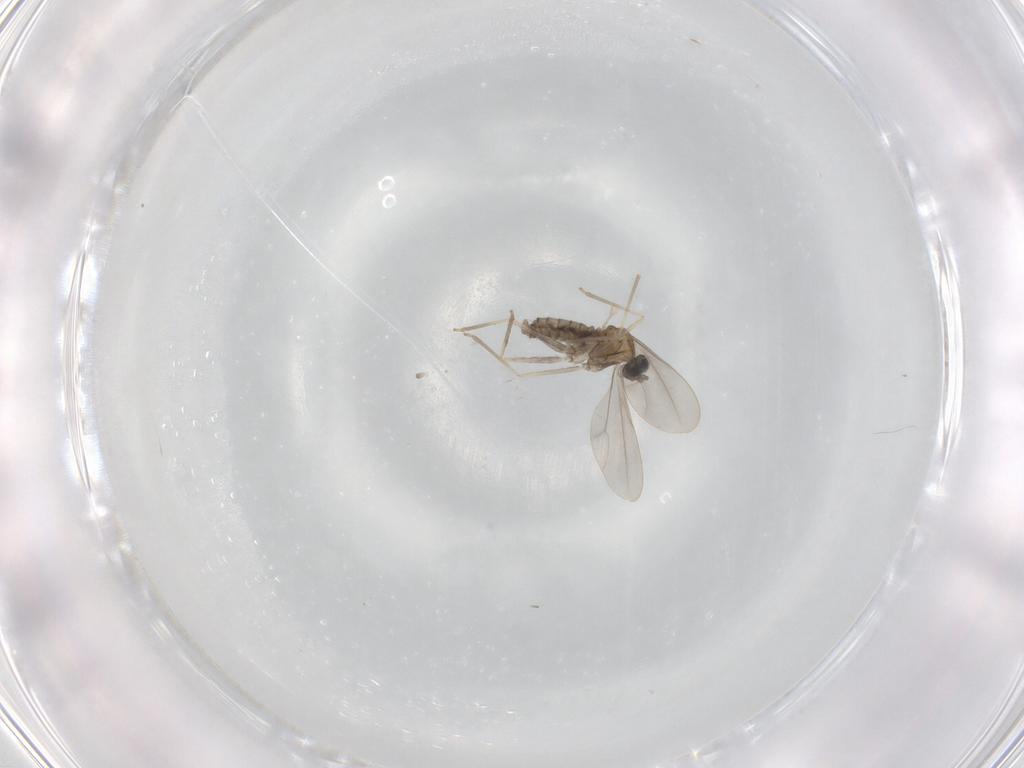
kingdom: Animalia
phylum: Arthropoda
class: Insecta
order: Diptera
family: Cecidomyiidae
